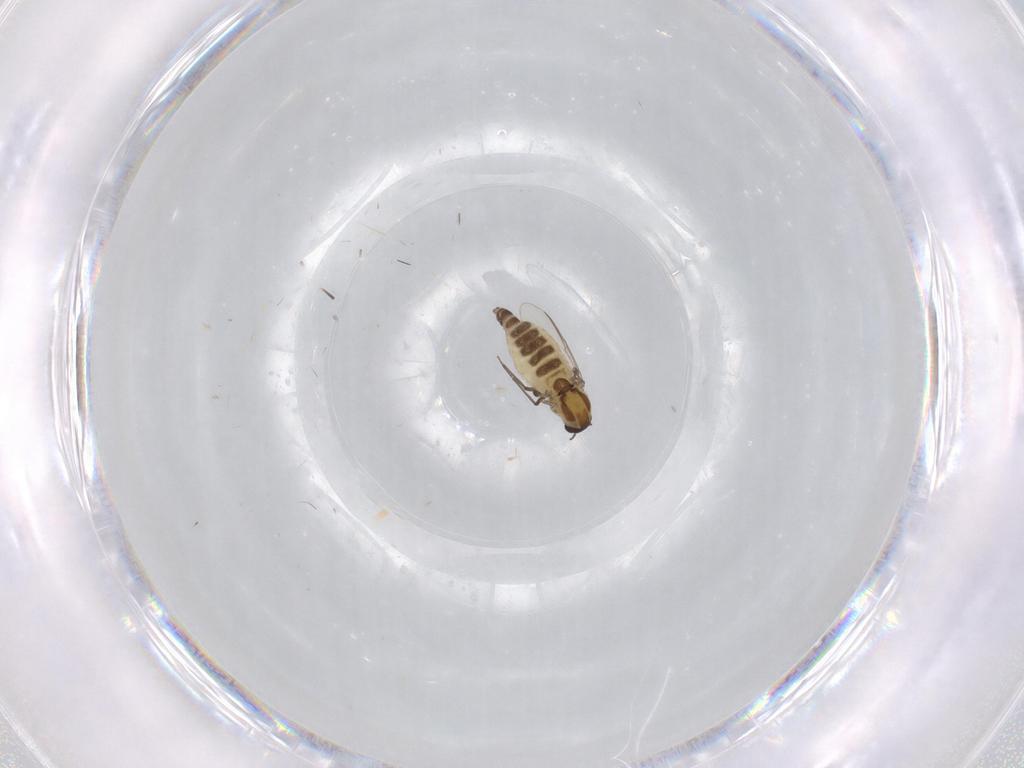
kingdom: Animalia
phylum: Arthropoda
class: Insecta
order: Diptera
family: Chironomidae
